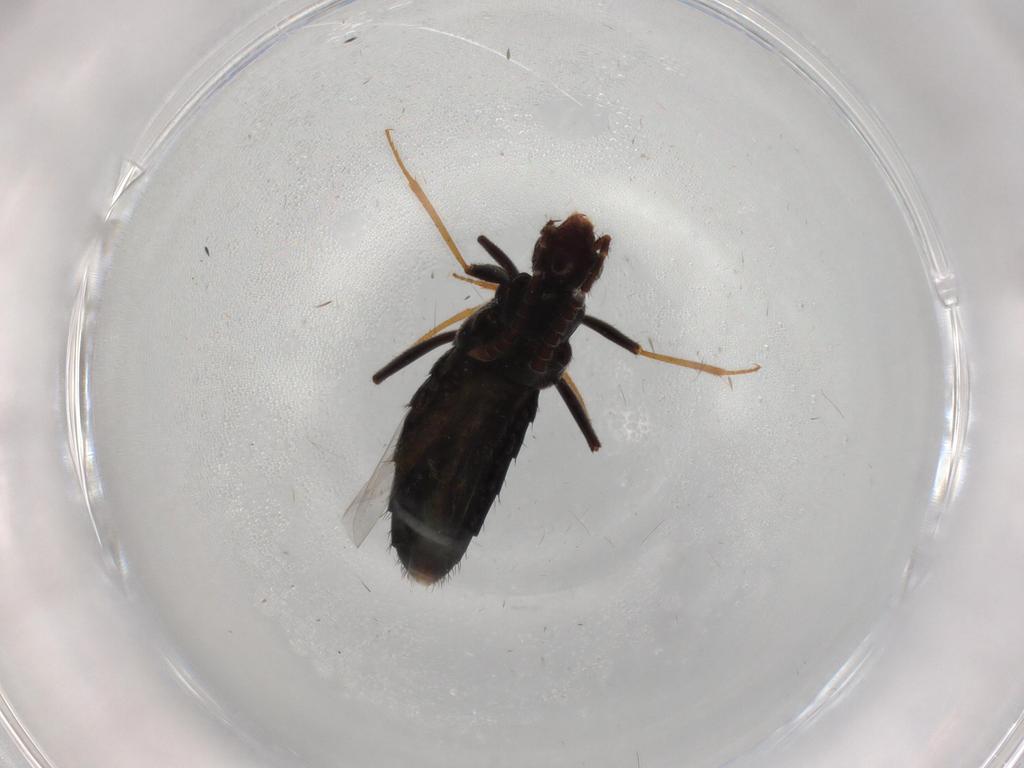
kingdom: Animalia
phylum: Arthropoda
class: Insecta
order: Coleoptera
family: Staphylinidae
